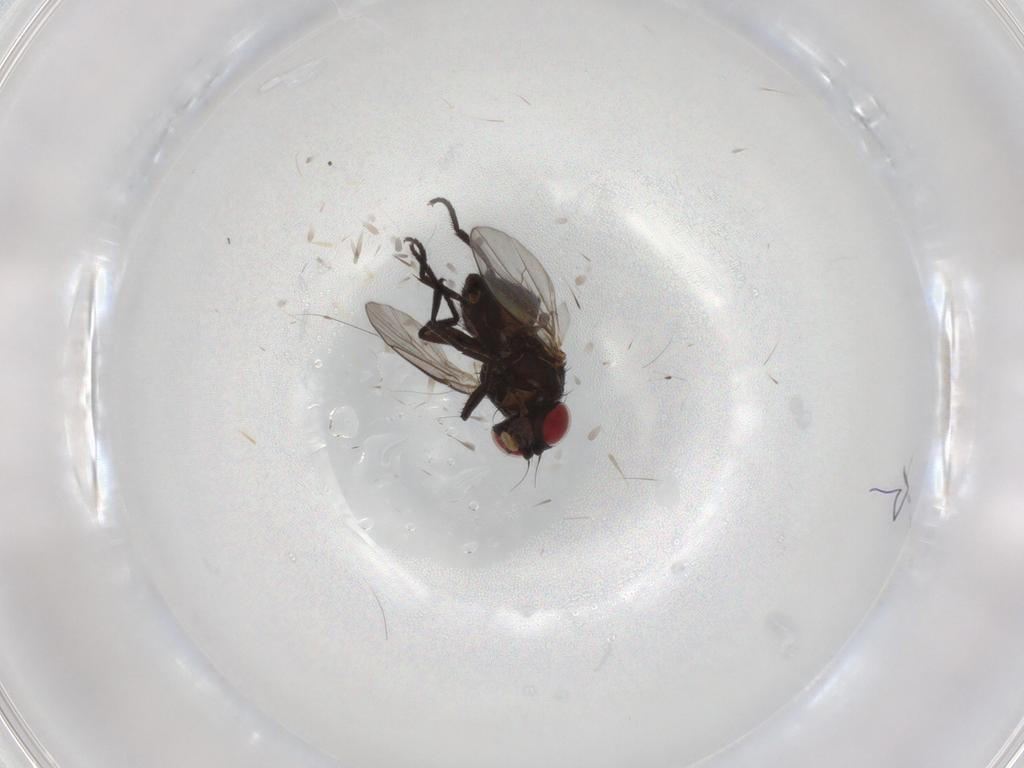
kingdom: Animalia
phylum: Arthropoda
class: Insecta
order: Diptera
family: Agromyzidae
